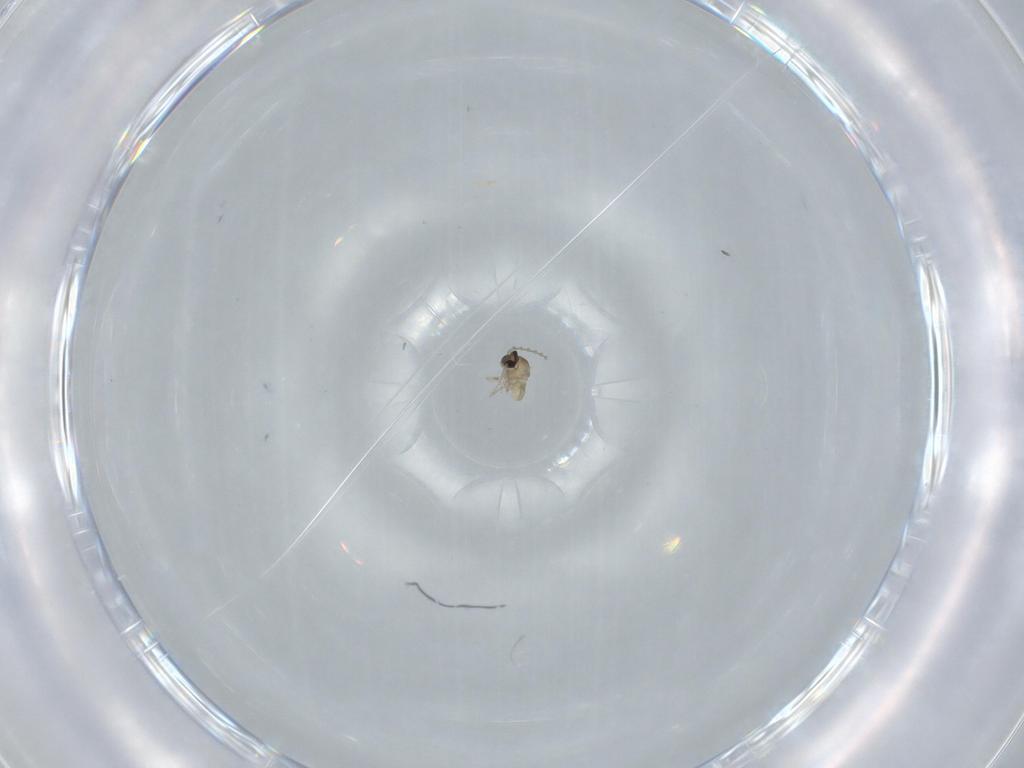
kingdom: Animalia
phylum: Arthropoda
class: Insecta
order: Diptera
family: Cecidomyiidae
